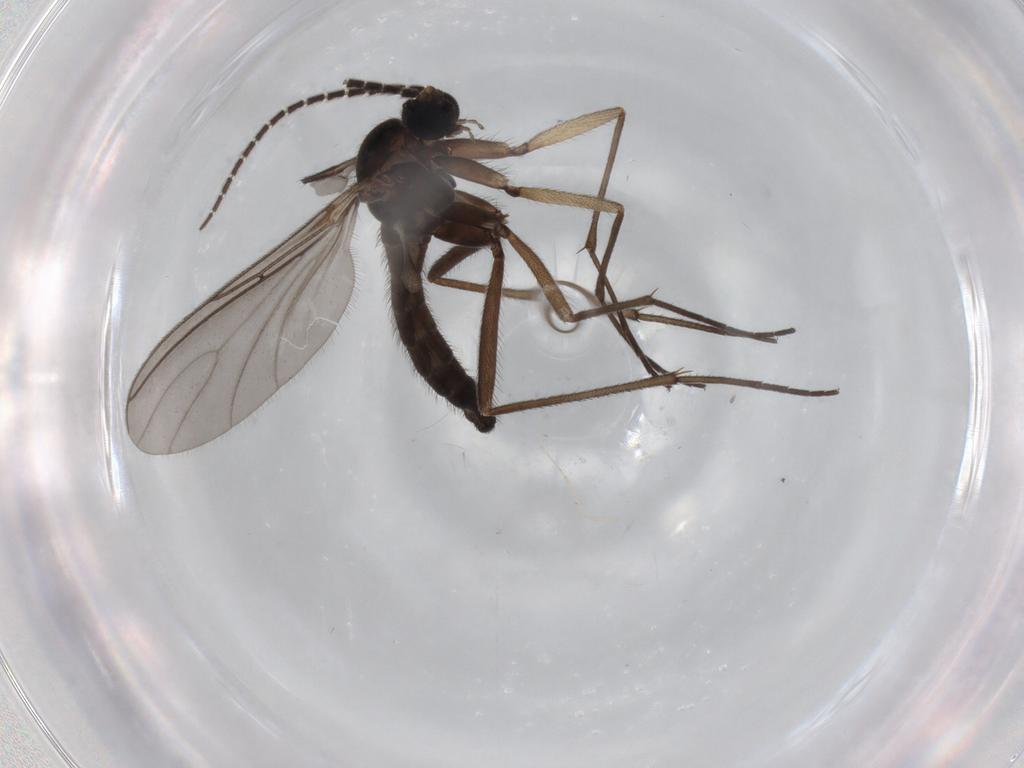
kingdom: Animalia
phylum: Arthropoda
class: Insecta
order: Diptera
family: Sciaridae
